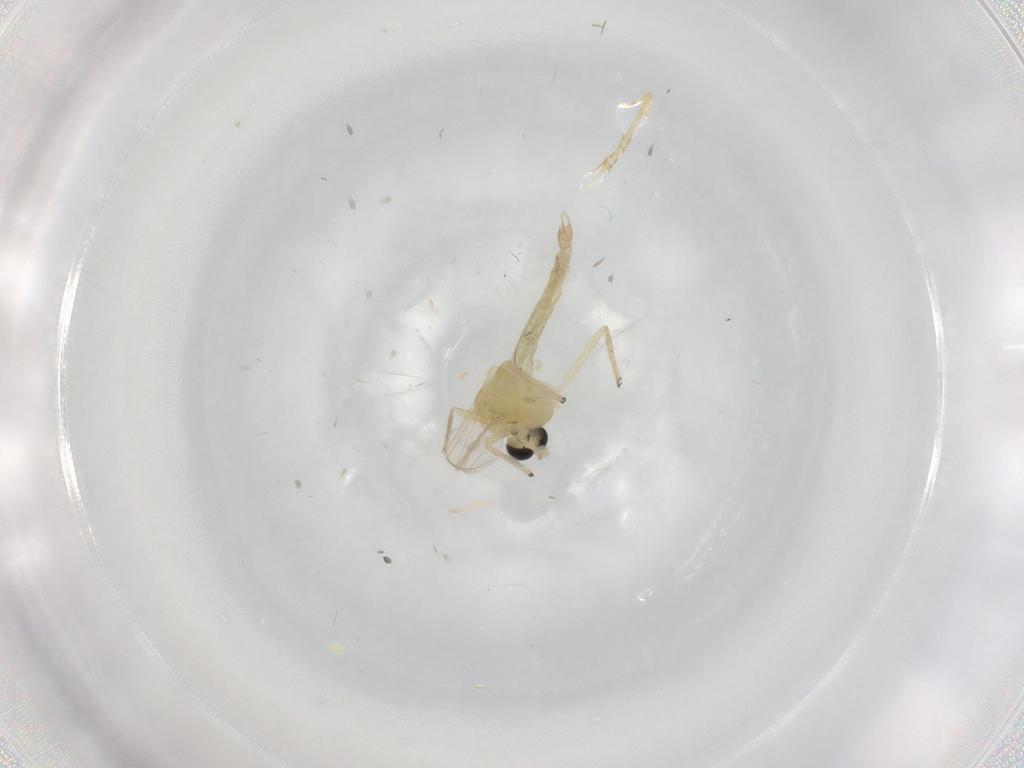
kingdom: Animalia
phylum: Arthropoda
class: Insecta
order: Diptera
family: Chironomidae
